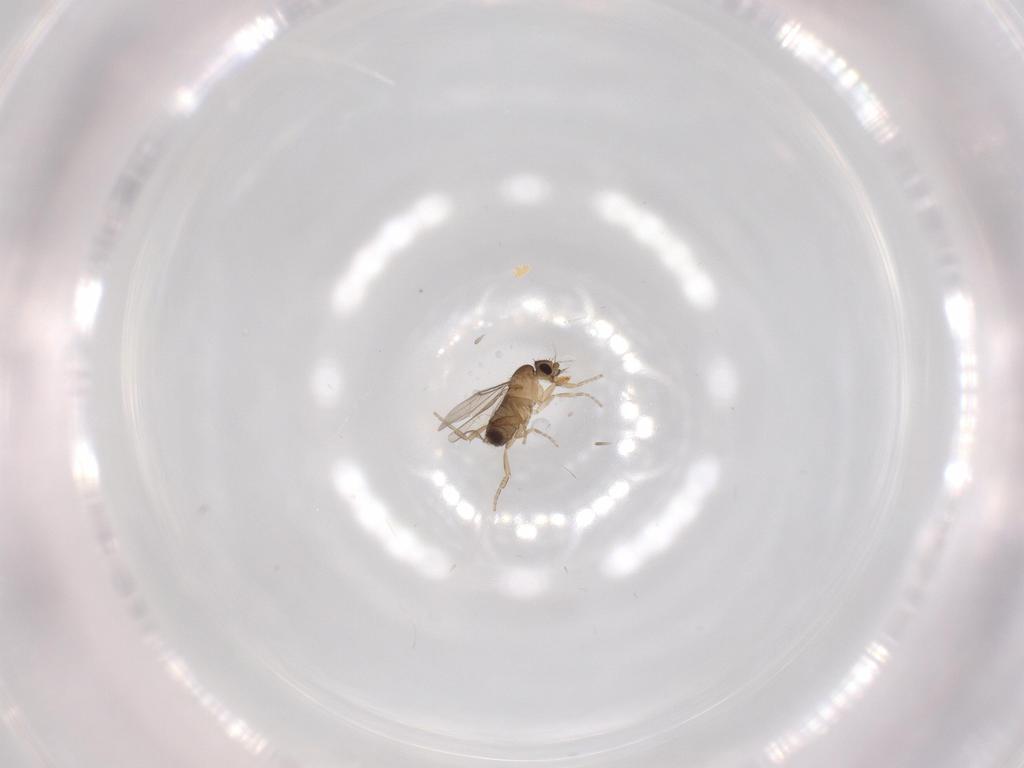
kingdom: Animalia
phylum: Arthropoda
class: Insecta
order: Diptera
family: Phoridae
